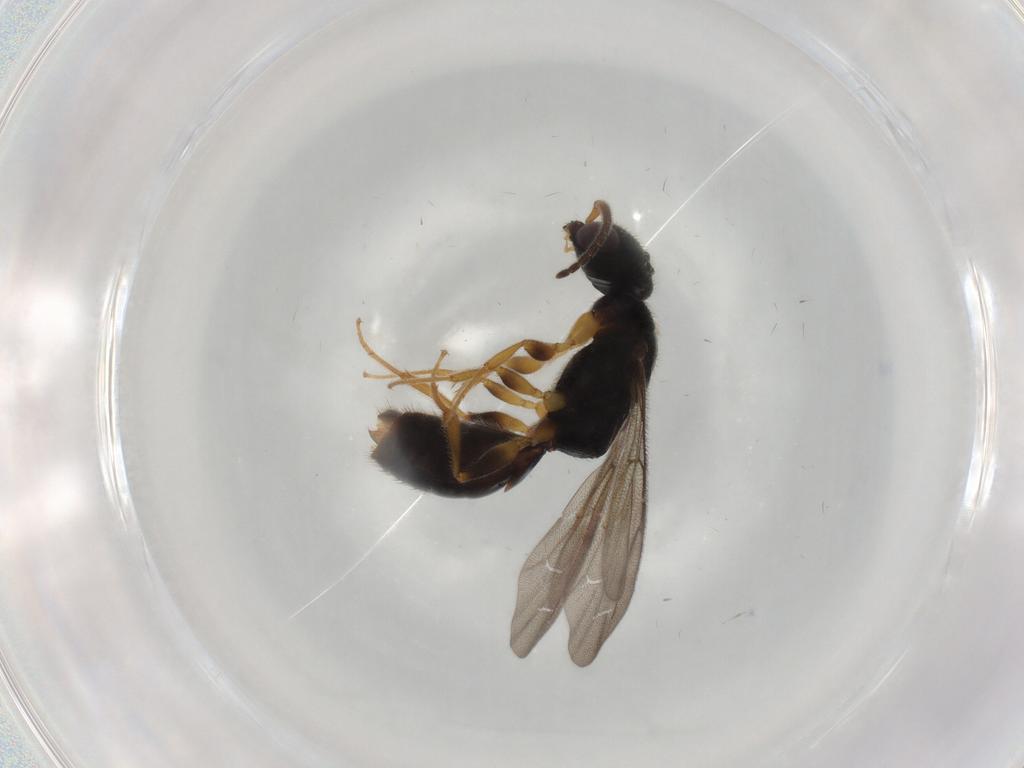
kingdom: Animalia
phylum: Arthropoda
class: Insecta
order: Hymenoptera
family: Bethylidae
